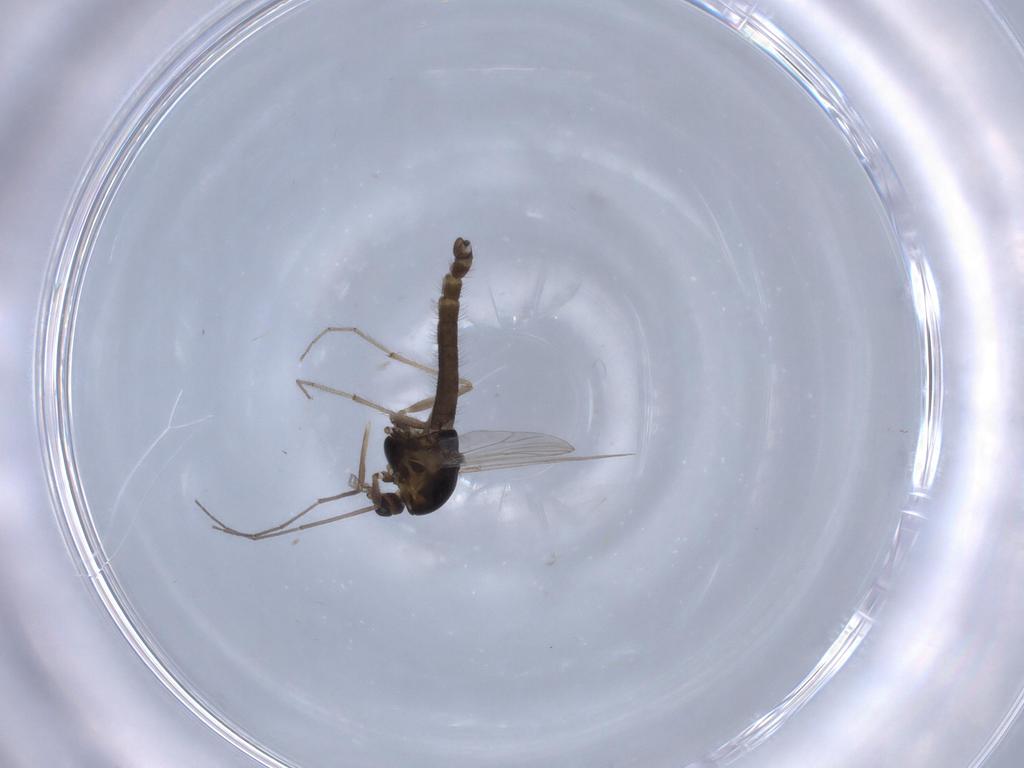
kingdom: Animalia
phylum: Arthropoda
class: Insecta
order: Diptera
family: Chironomidae
